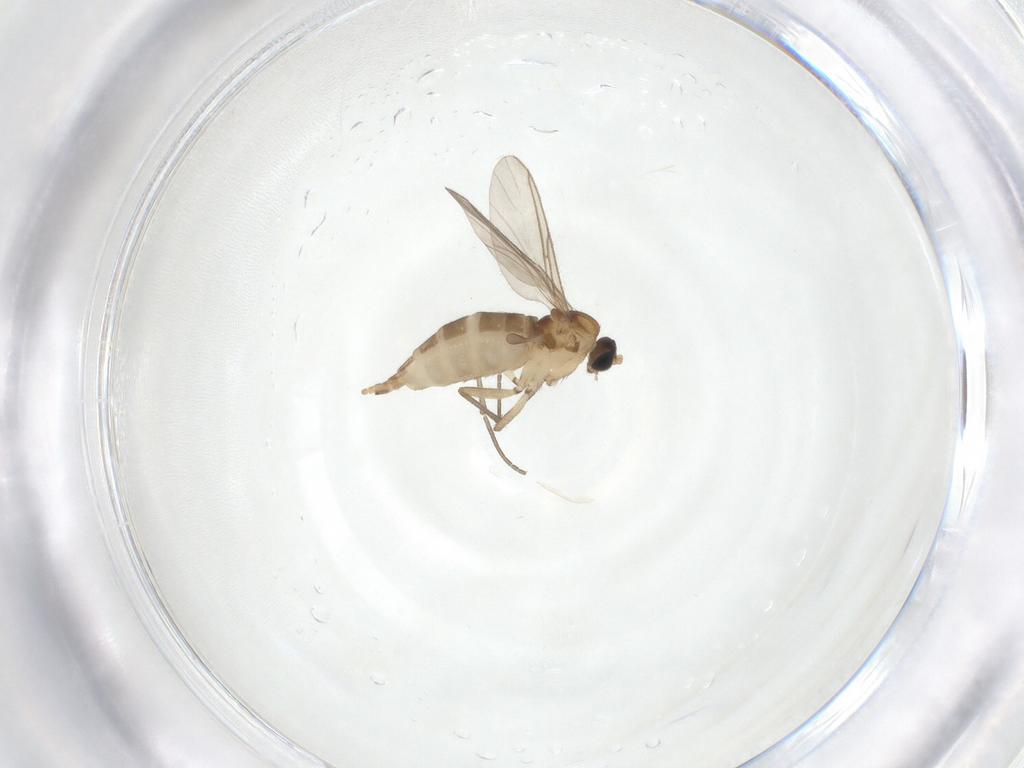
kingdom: Animalia
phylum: Arthropoda
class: Insecta
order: Diptera
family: Sciaridae
